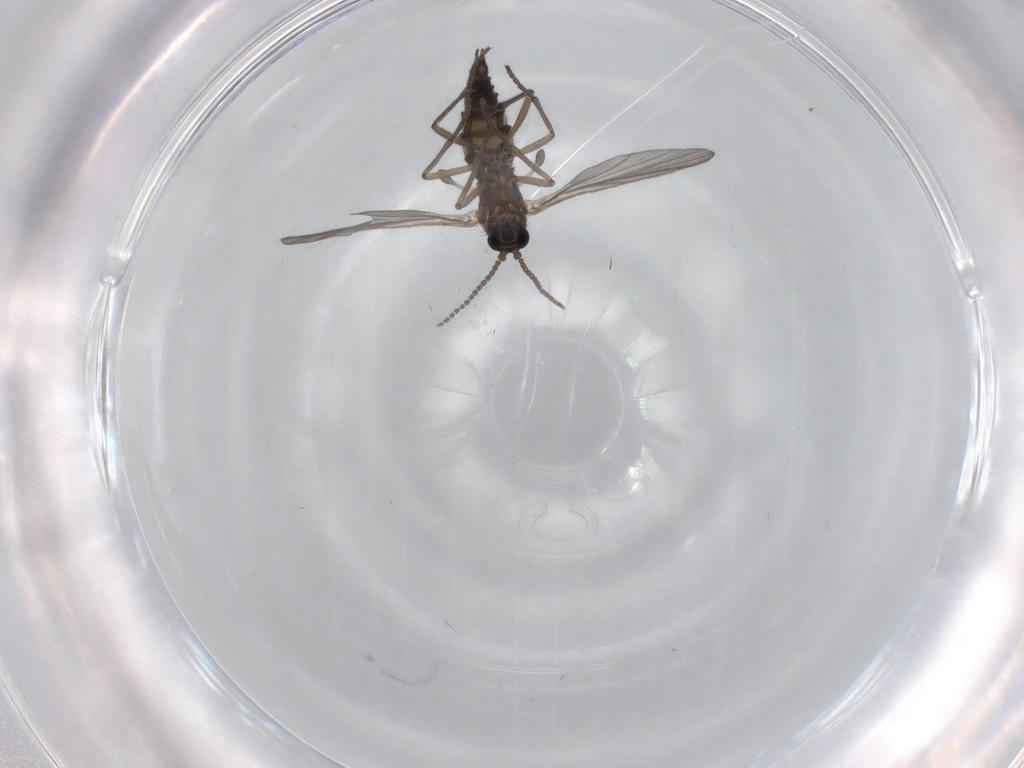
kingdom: Animalia
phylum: Arthropoda
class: Insecta
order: Diptera
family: Sciaridae
